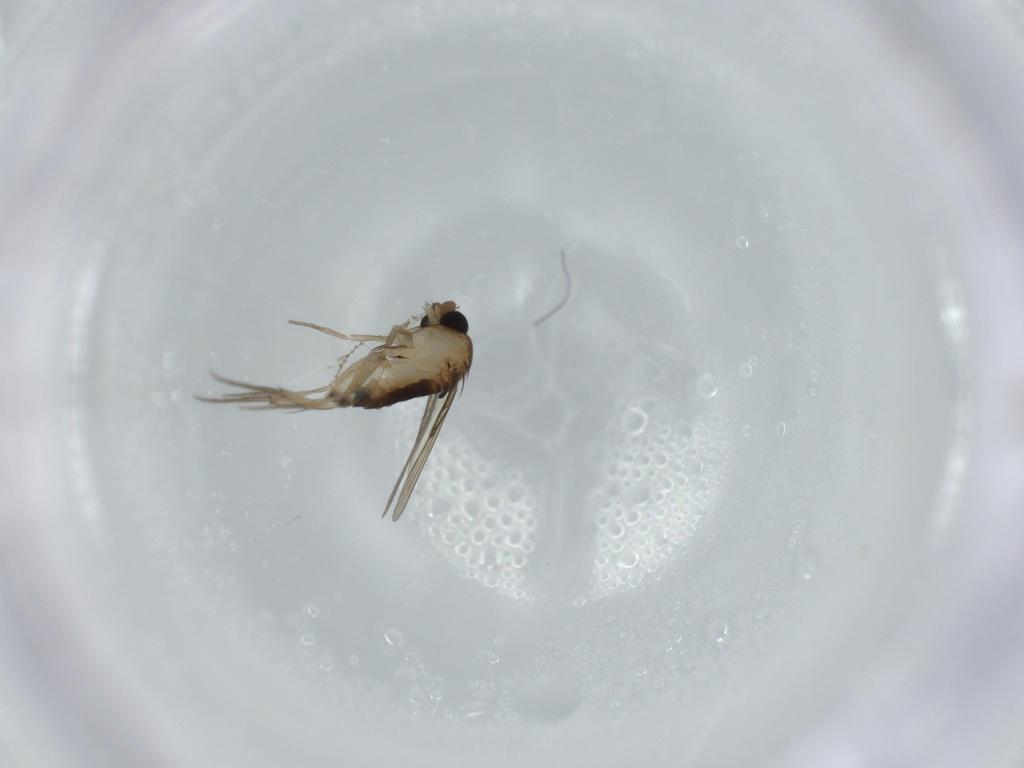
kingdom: Animalia
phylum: Arthropoda
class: Insecta
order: Diptera
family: Phoridae
